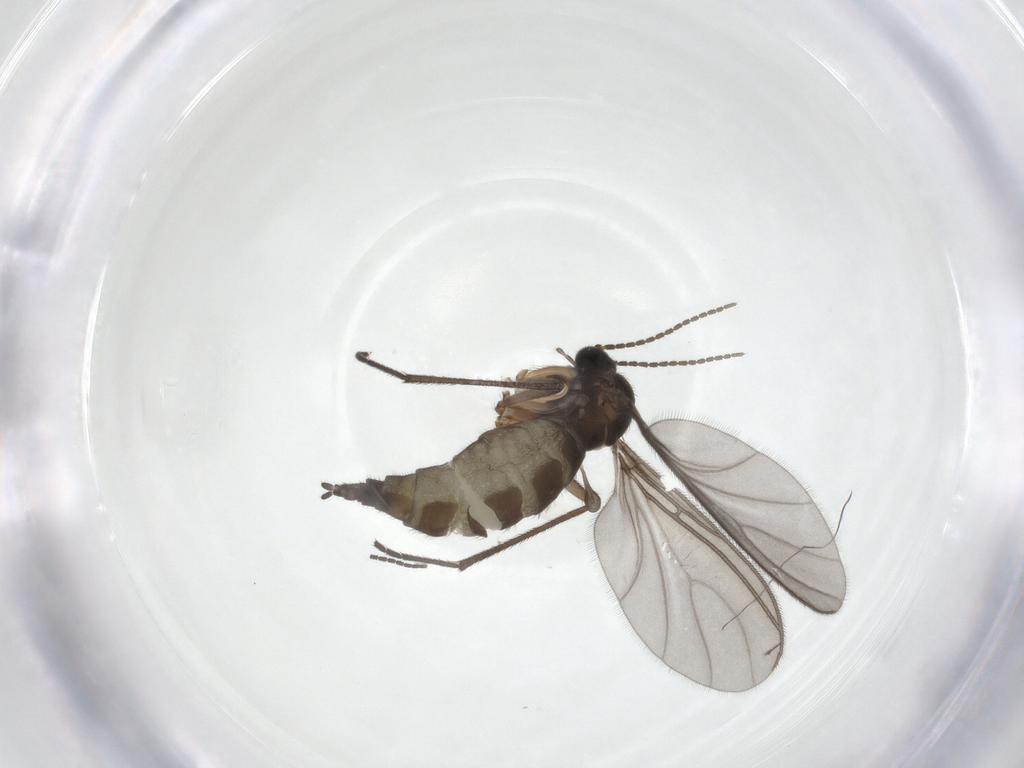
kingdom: Animalia
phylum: Arthropoda
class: Insecta
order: Diptera
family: Sciaridae
